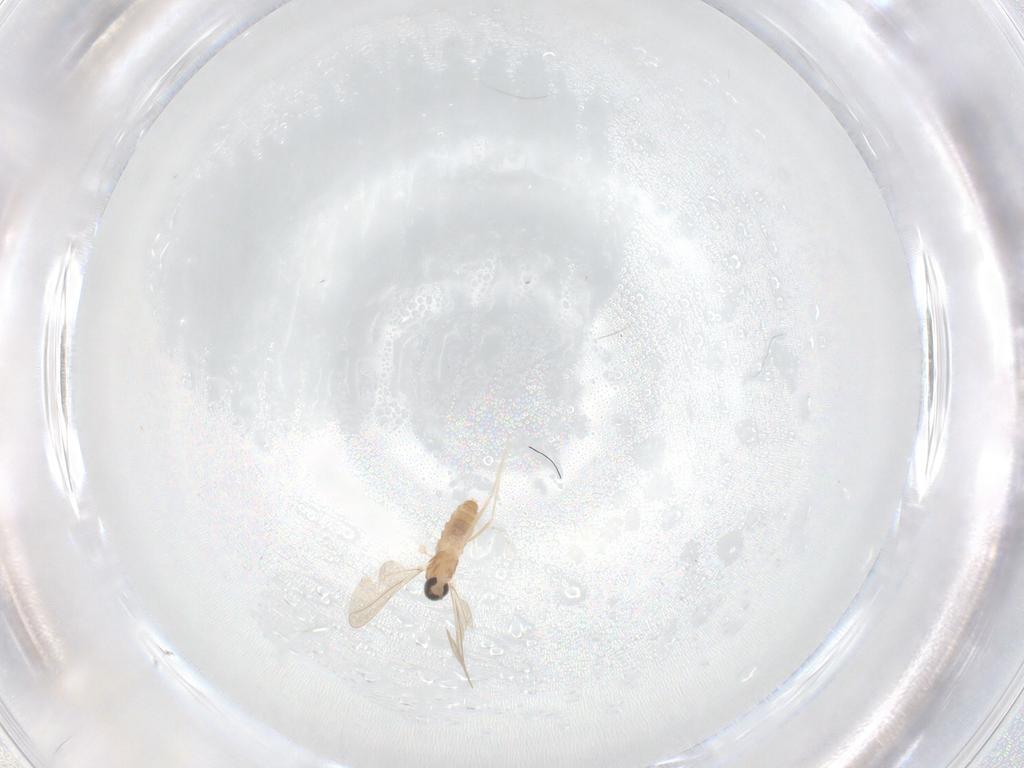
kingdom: Animalia
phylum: Arthropoda
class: Insecta
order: Diptera
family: Cecidomyiidae
